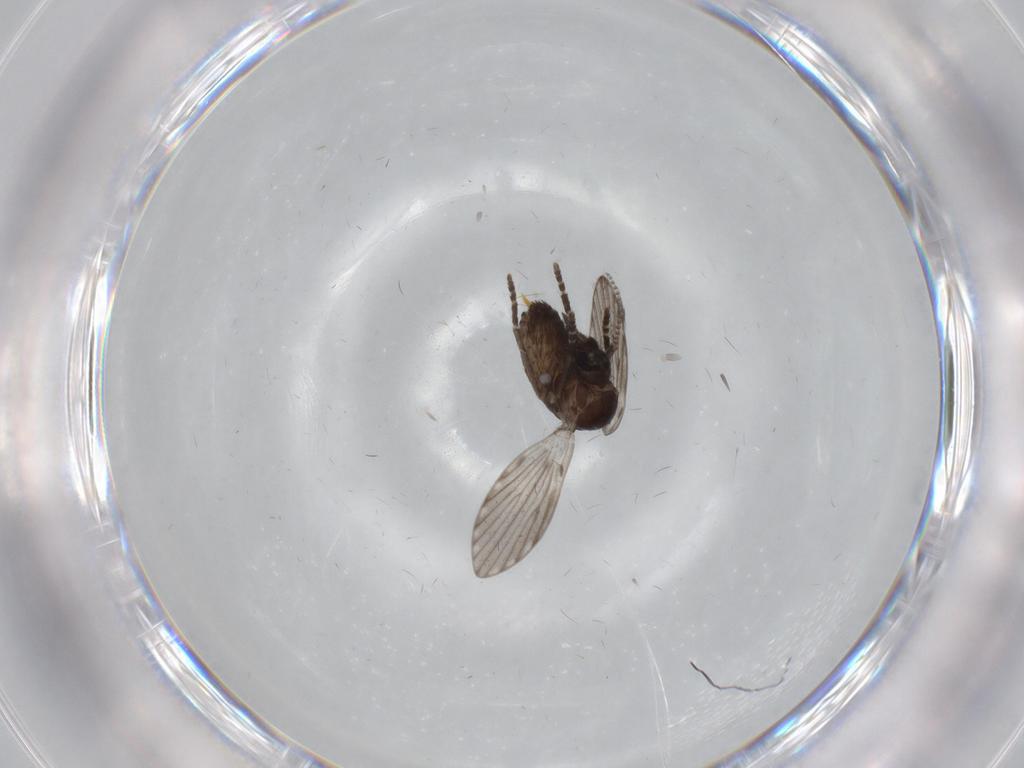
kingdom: Animalia
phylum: Arthropoda
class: Insecta
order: Diptera
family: Psychodidae
